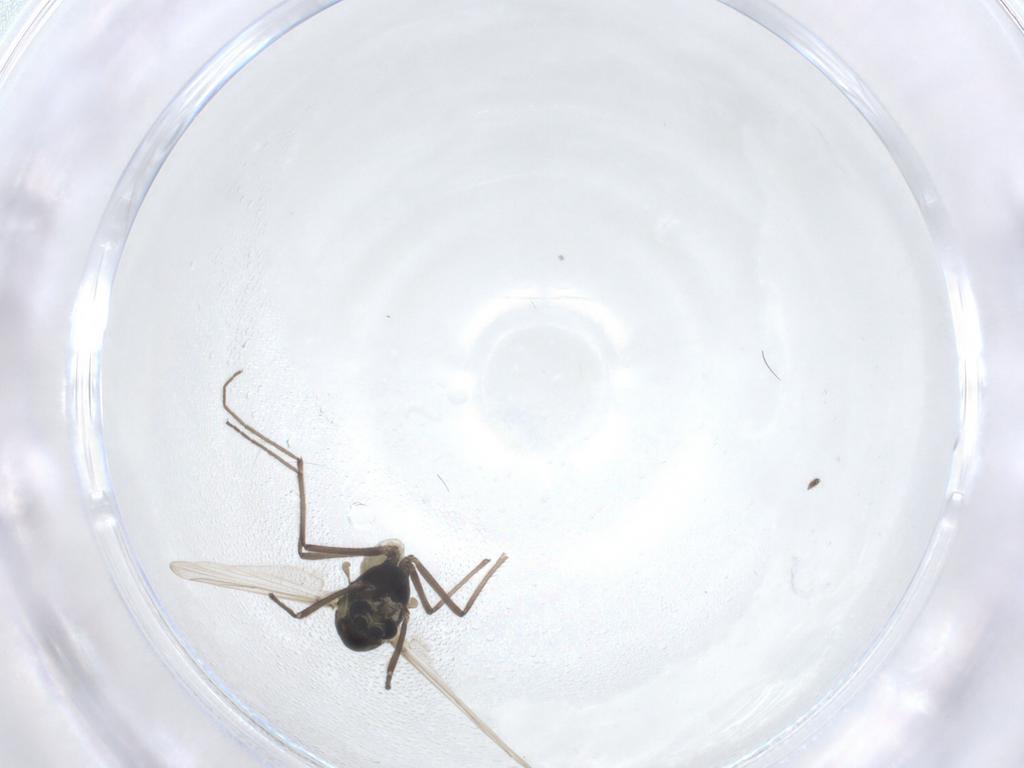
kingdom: Animalia
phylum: Arthropoda
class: Insecta
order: Diptera
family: Chironomidae
